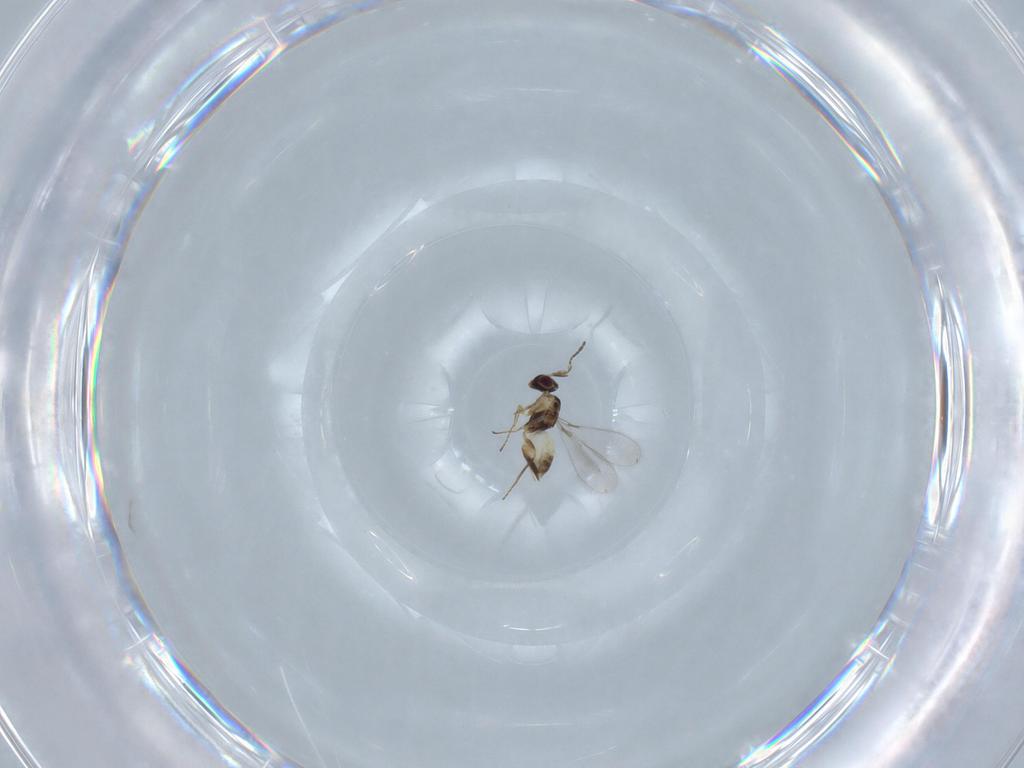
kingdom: Animalia
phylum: Arthropoda
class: Insecta
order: Hymenoptera
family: Mymaridae
